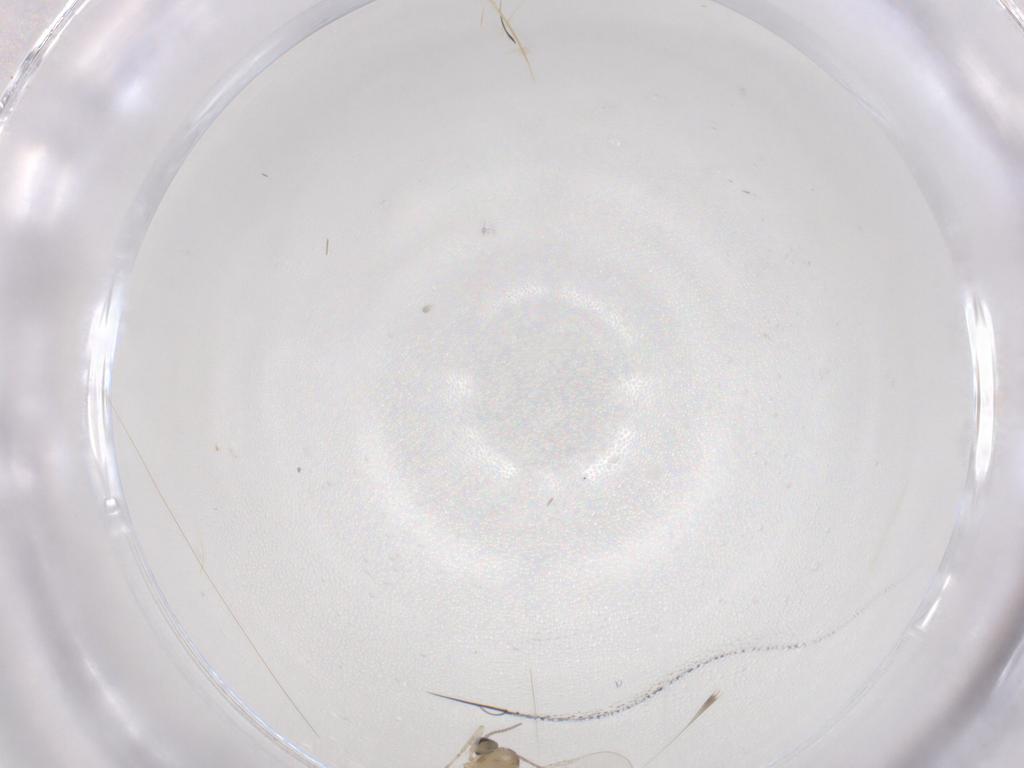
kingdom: Animalia
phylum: Arthropoda
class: Insecta
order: Diptera
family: Cecidomyiidae
